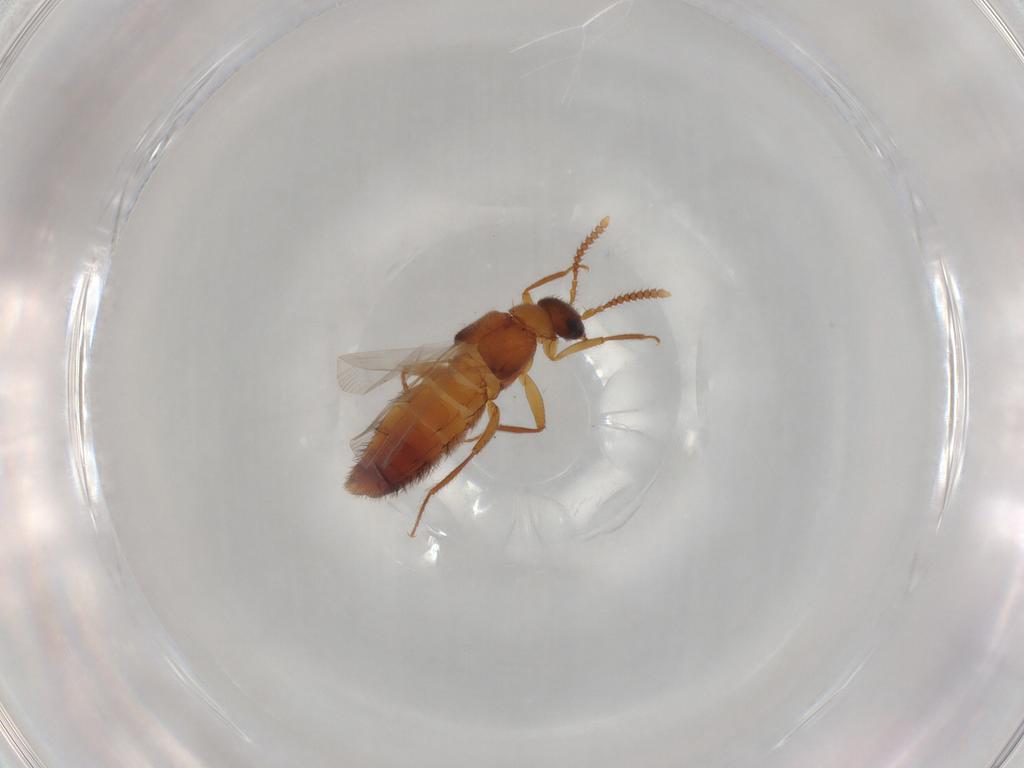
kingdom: Animalia
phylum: Arthropoda
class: Insecta
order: Coleoptera
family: Staphylinidae
